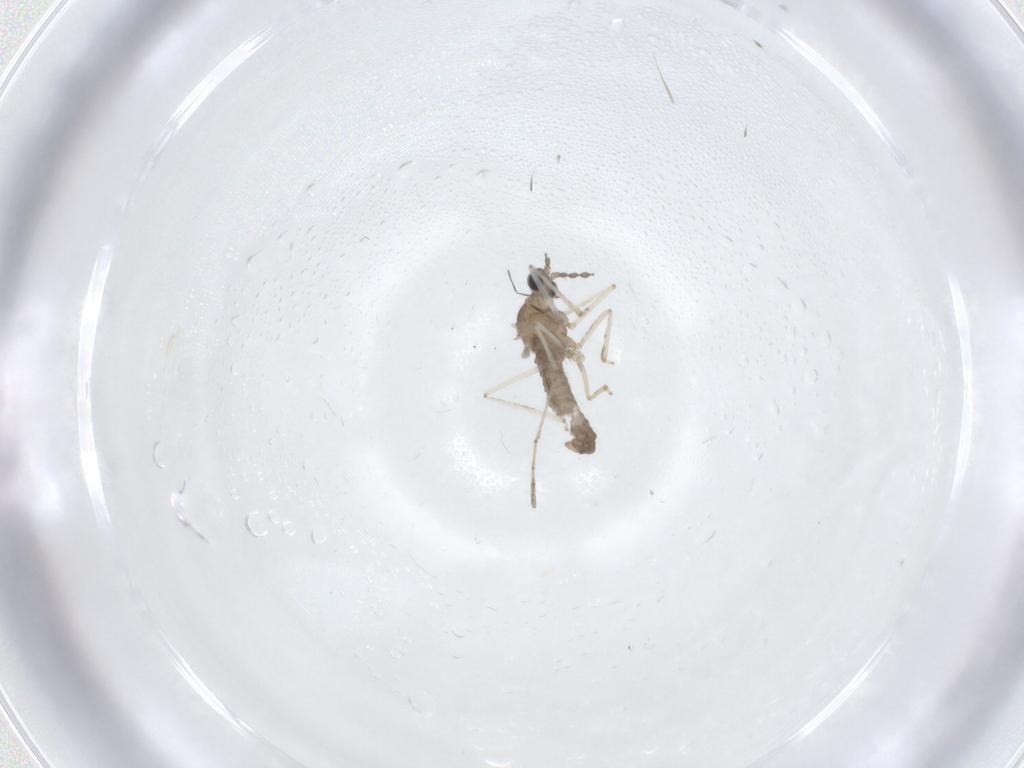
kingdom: Animalia
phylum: Arthropoda
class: Insecta
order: Diptera
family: Cecidomyiidae
